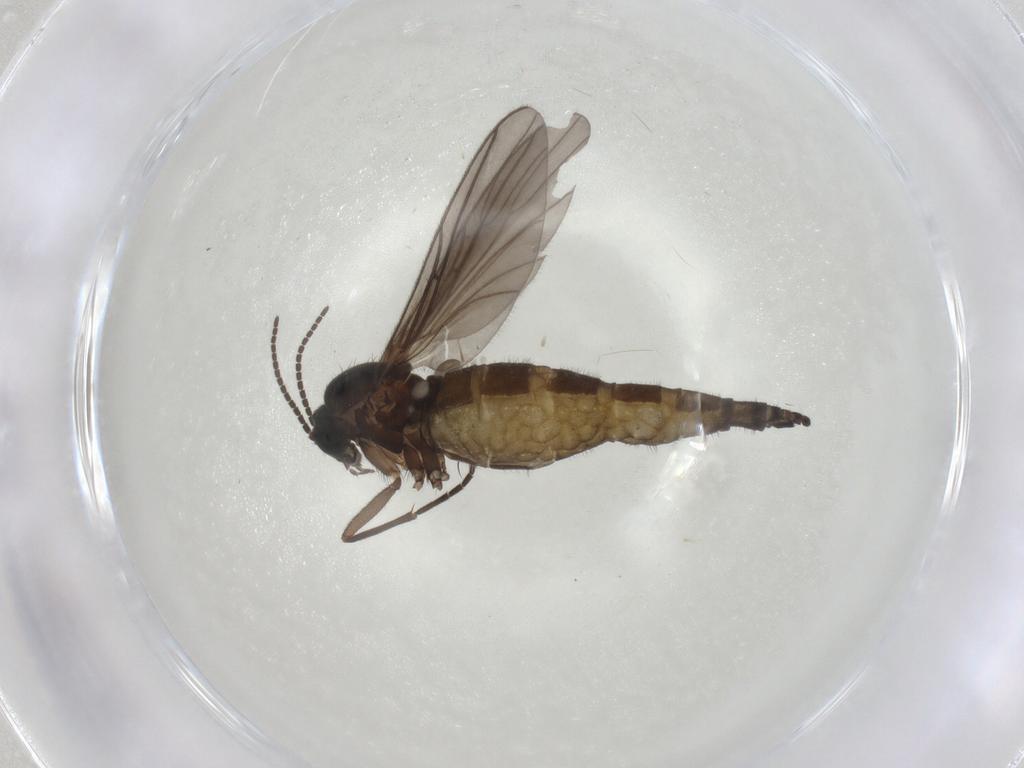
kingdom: Animalia
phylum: Arthropoda
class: Insecta
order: Diptera
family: Sciaridae
